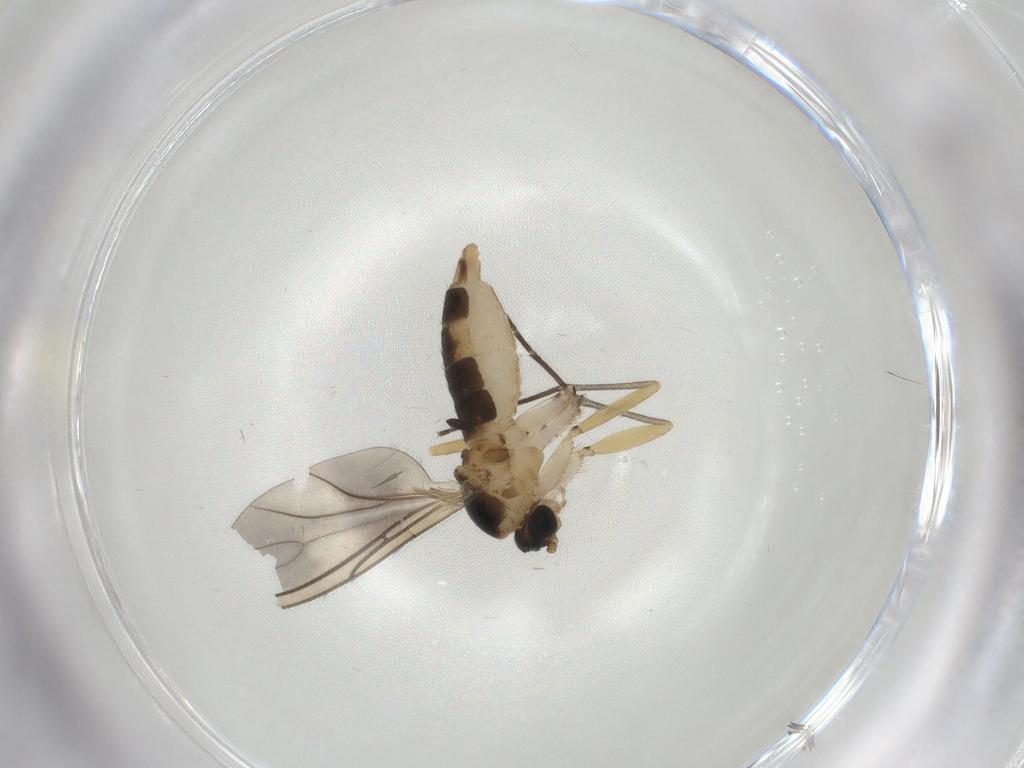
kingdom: Animalia
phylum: Arthropoda
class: Insecta
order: Diptera
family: Sciaridae
